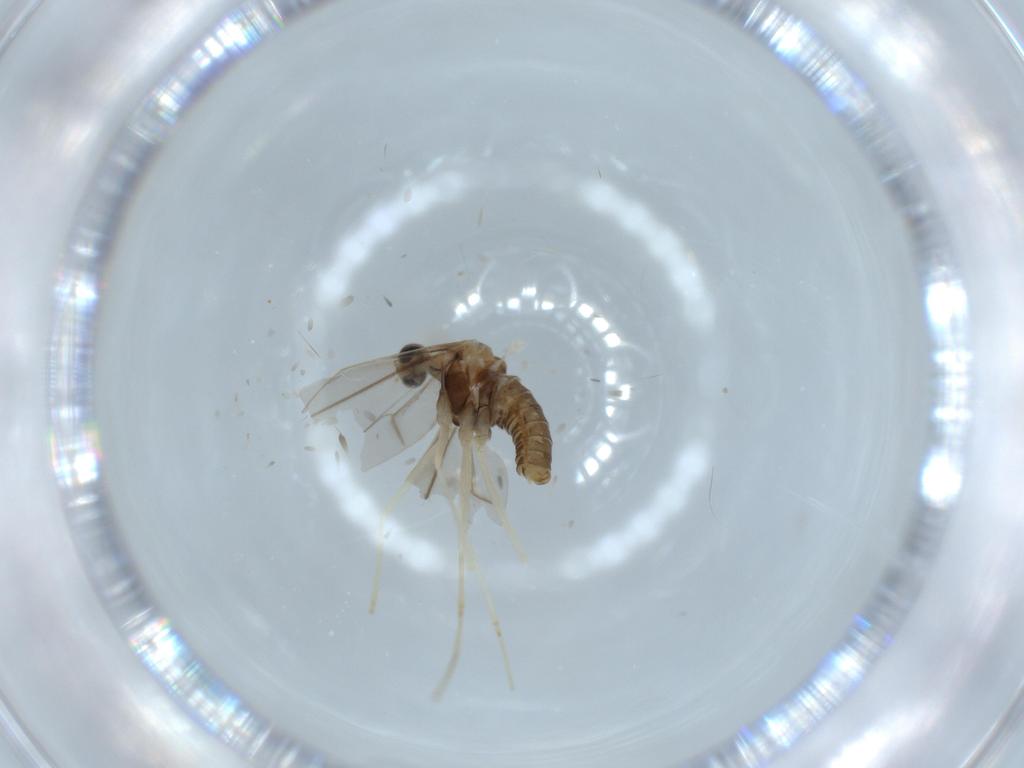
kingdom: Animalia
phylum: Arthropoda
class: Insecta
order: Diptera
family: Cecidomyiidae
